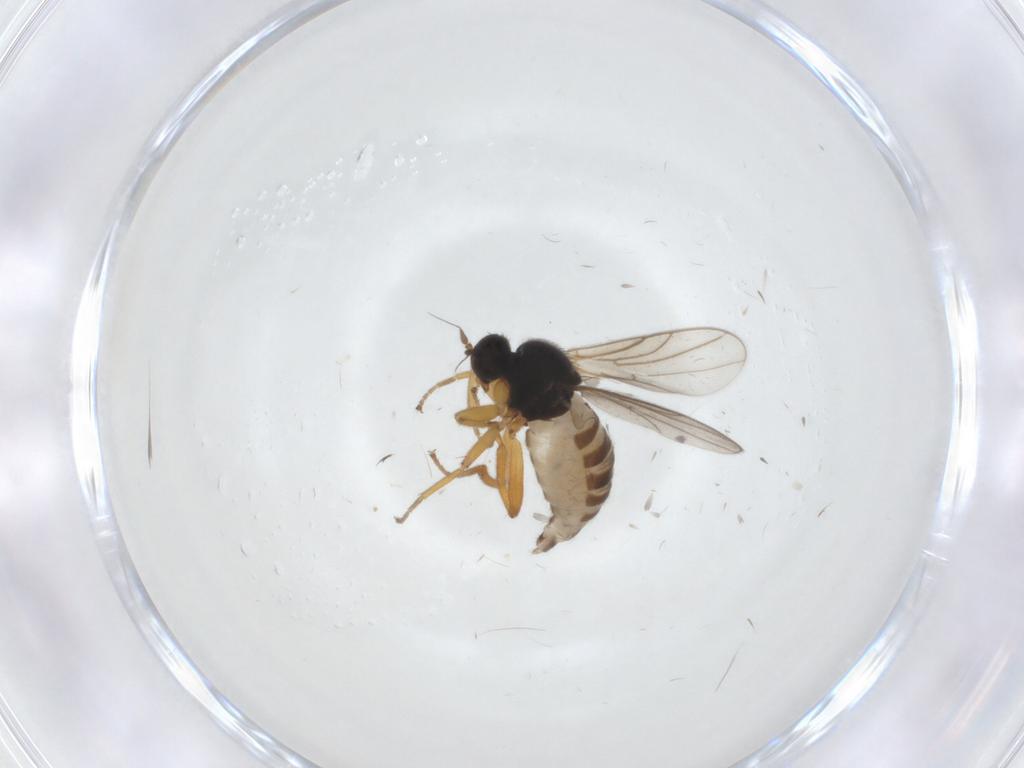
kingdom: Animalia
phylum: Arthropoda
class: Insecta
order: Diptera
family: Hybotidae
